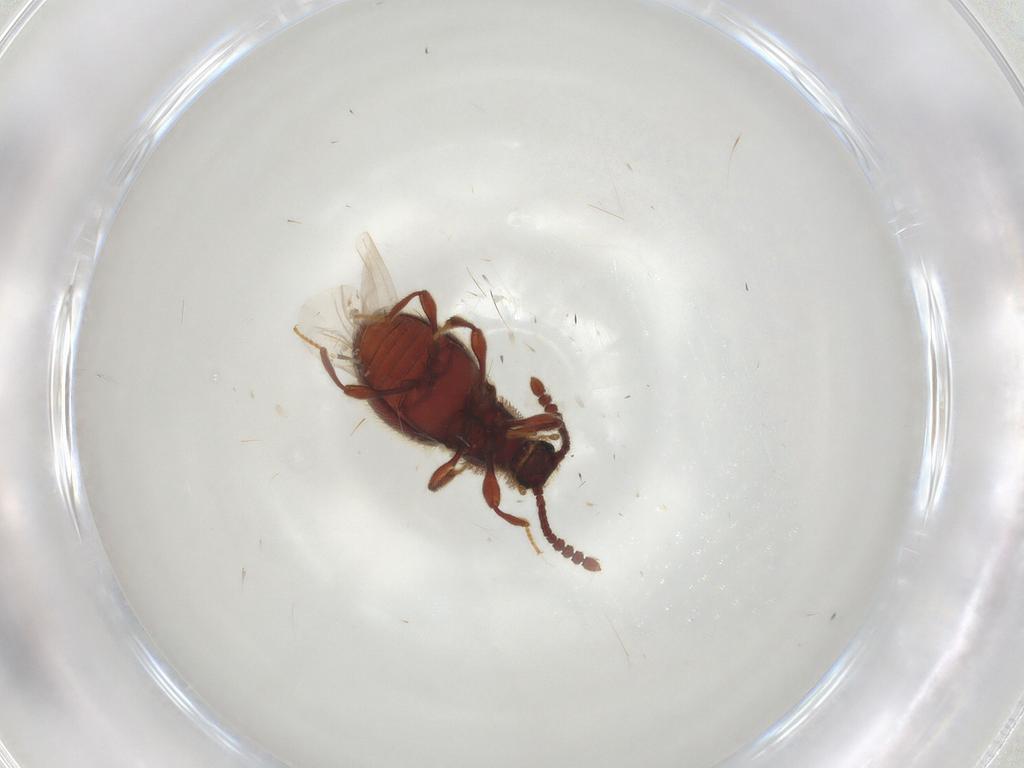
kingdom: Animalia
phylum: Arthropoda
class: Insecta
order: Coleoptera
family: Staphylinidae
